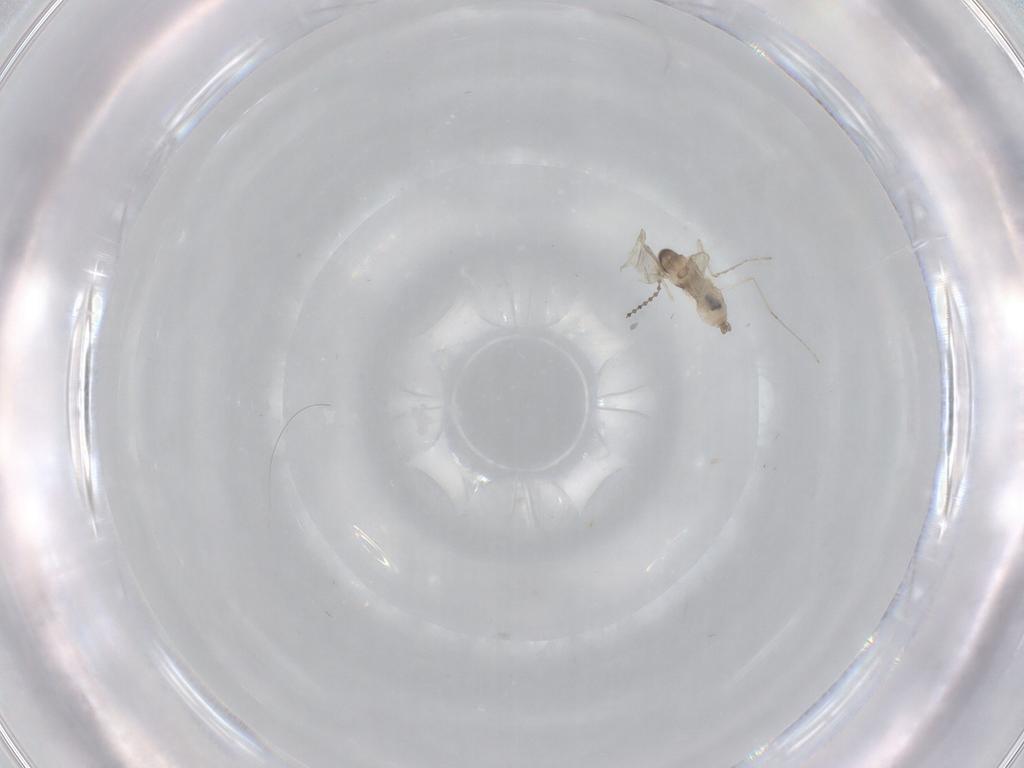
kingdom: Animalia
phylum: Arthropoda
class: Insecta
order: Diptera
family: Cecidomyiidae
